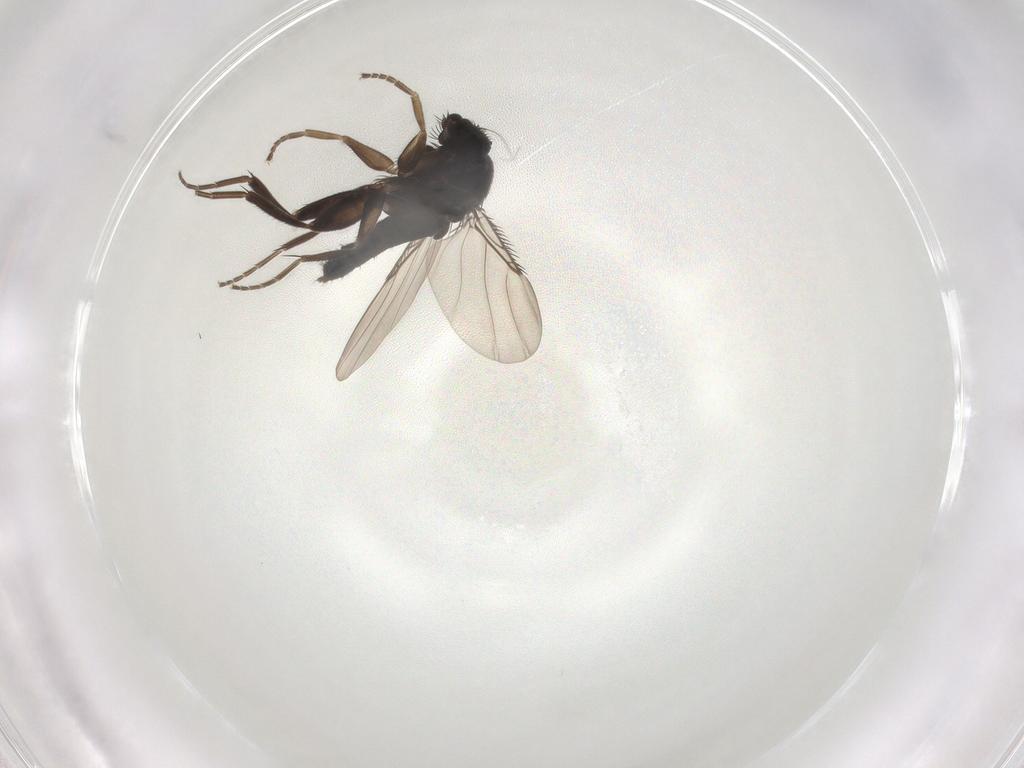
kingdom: Animalia
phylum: Arthropoda
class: Insecta
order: Diptera
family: Phoridae
